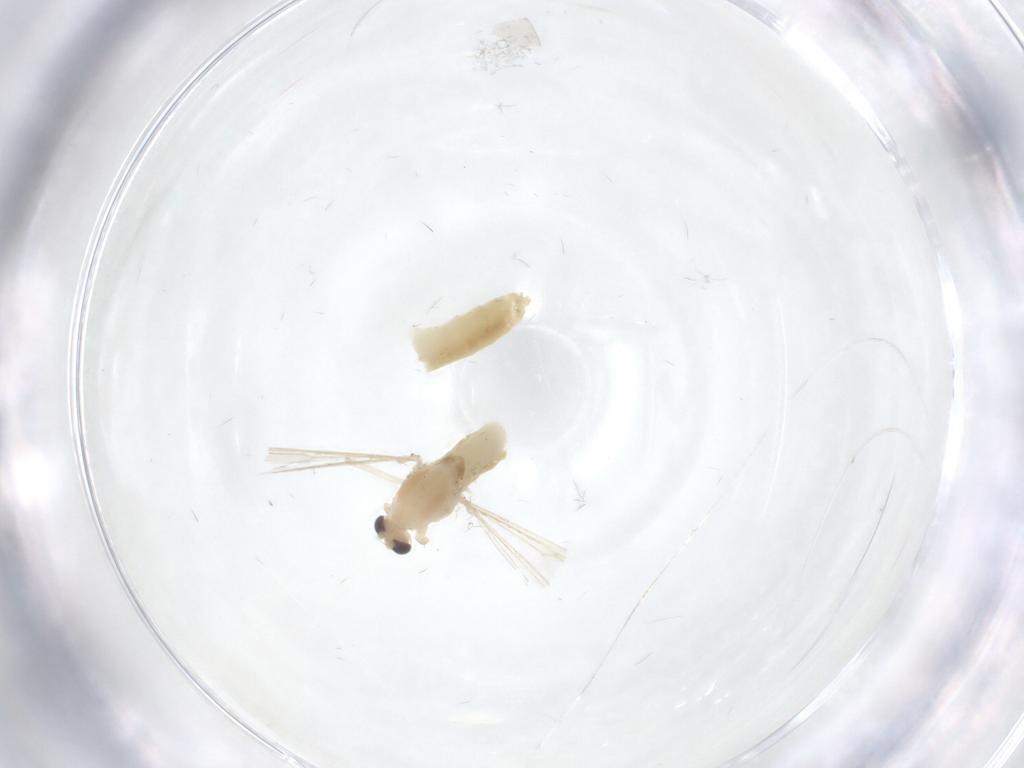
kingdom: Animalia
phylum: Arthropoda
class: Insecta
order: Diptera
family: Chironomidae
